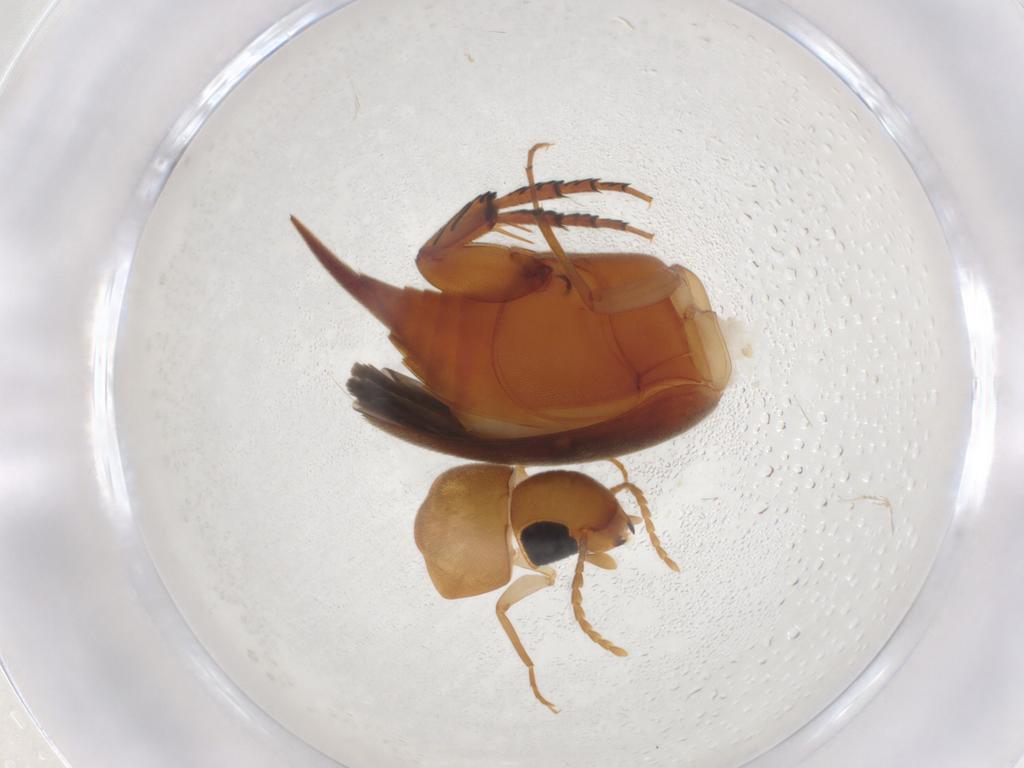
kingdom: Animalia
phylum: Arthropoda
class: Insecta
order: Coleoptera
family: Mordellidae
